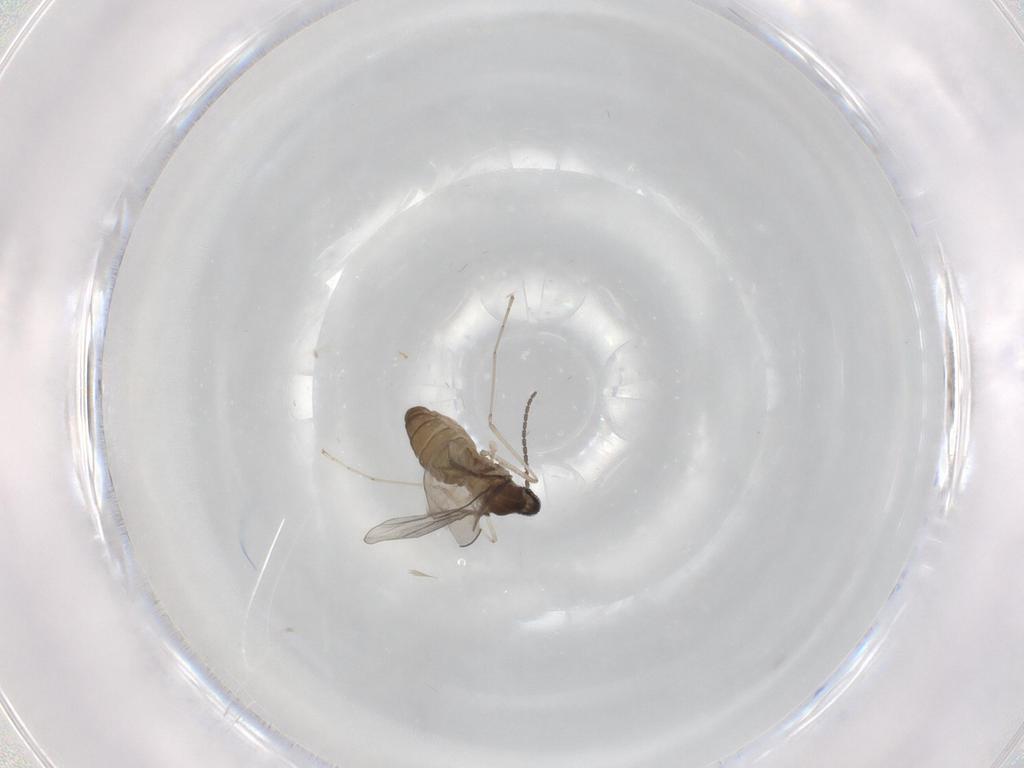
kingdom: Animalia
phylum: Arthropoda
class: Insecta
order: Diptera
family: Cecidomyiidae
